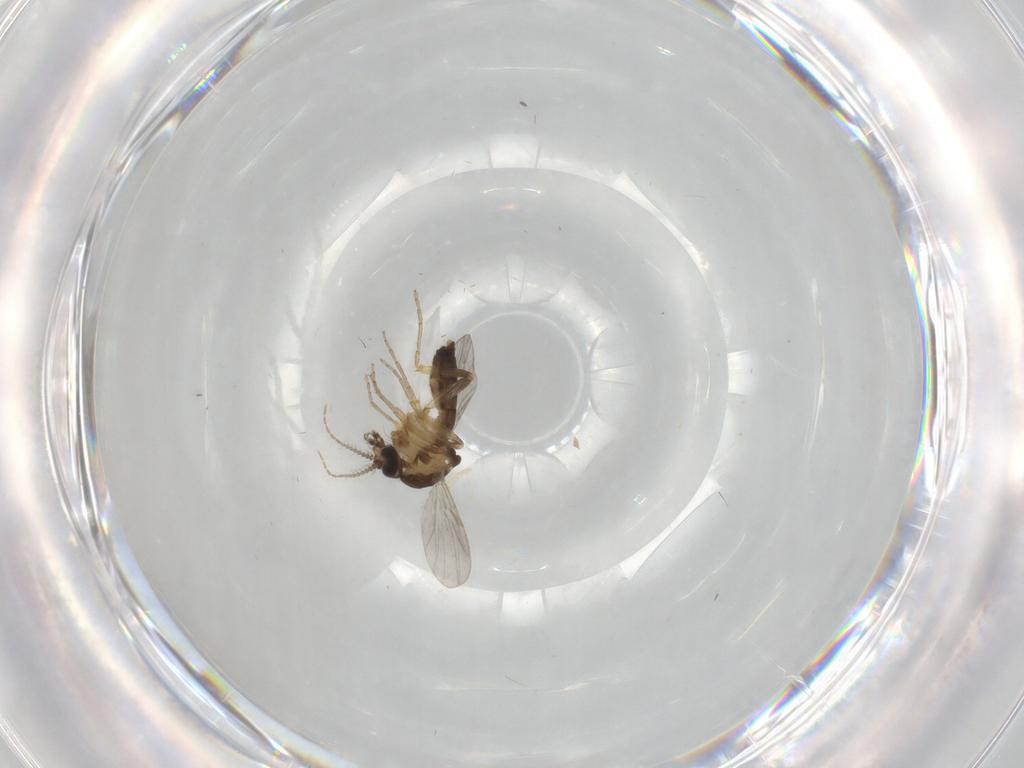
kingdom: Animalia
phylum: Arthropoda
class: Insecta
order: Diptera
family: Ceratopogonidae
